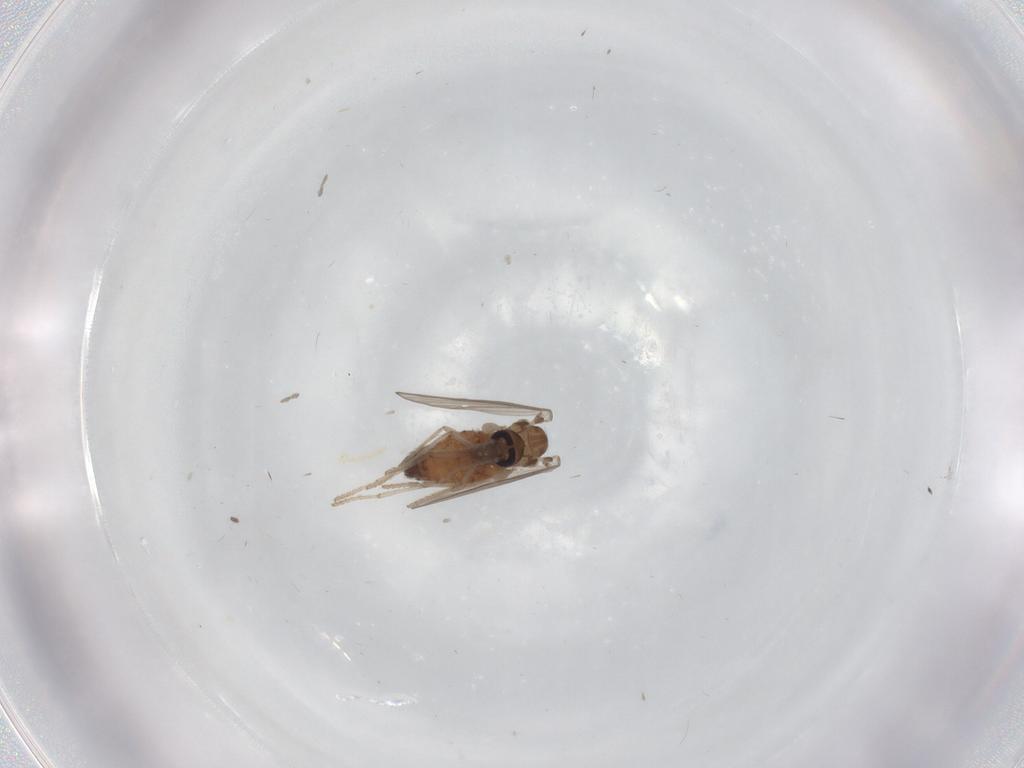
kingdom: Animalia
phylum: Arthropoda
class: Insecta
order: Diptera
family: Psychodidae
